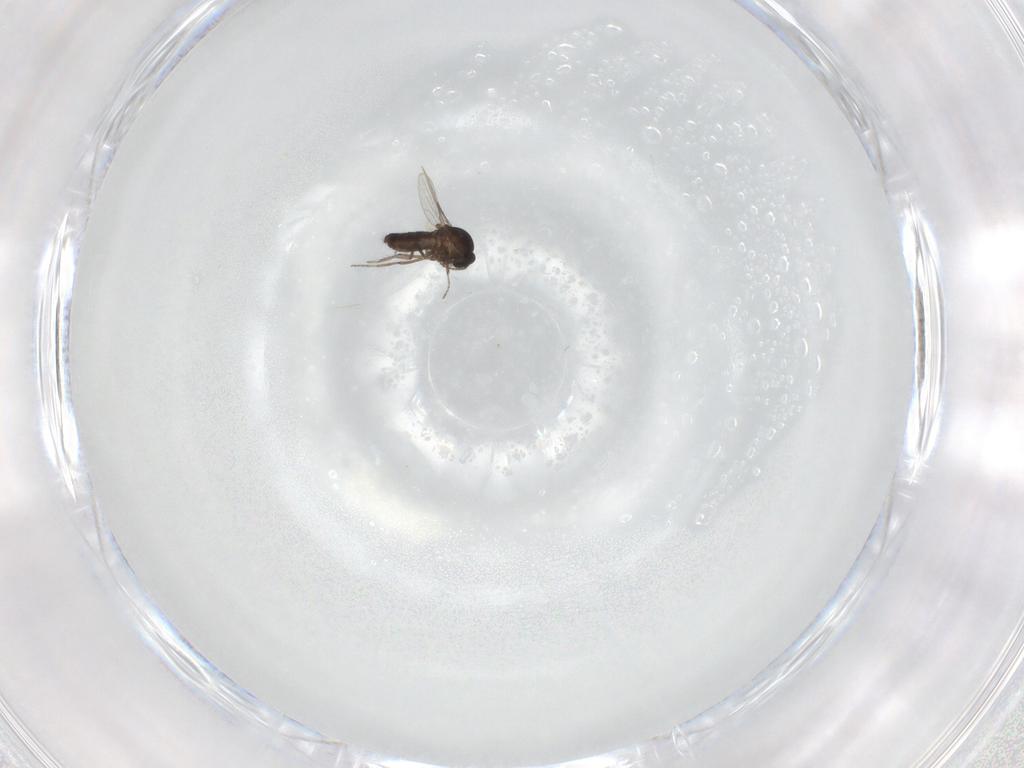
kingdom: Animalia
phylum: Arthropoda
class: Insecta
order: Diptera
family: Ceratopogonidae
